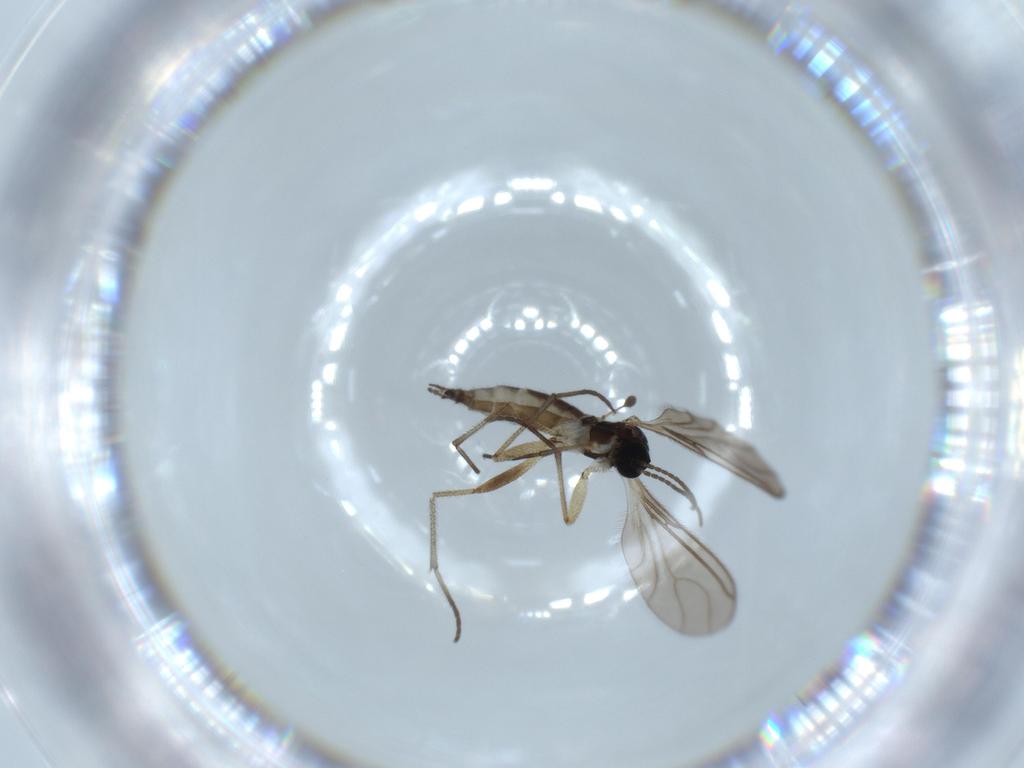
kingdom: Animalia
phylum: Arthropoda
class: Insecta
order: Diptera
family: Sciaridae
